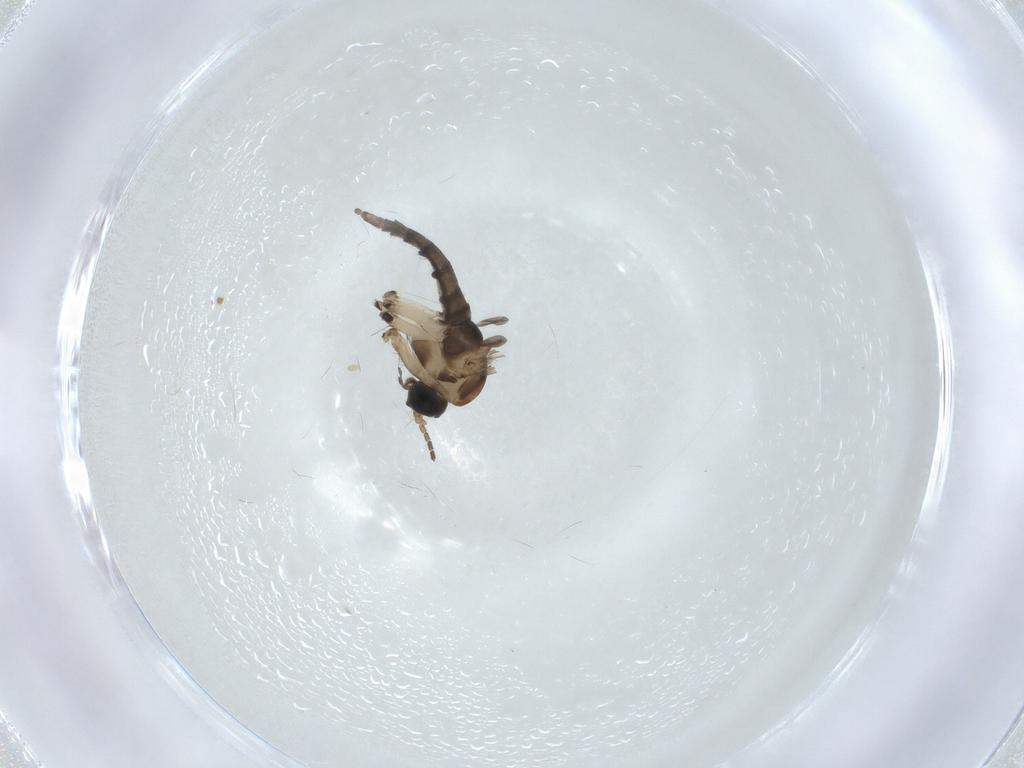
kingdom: Animalia
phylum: Arthropoda
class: Insecta
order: Diptera
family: Sciaridae
